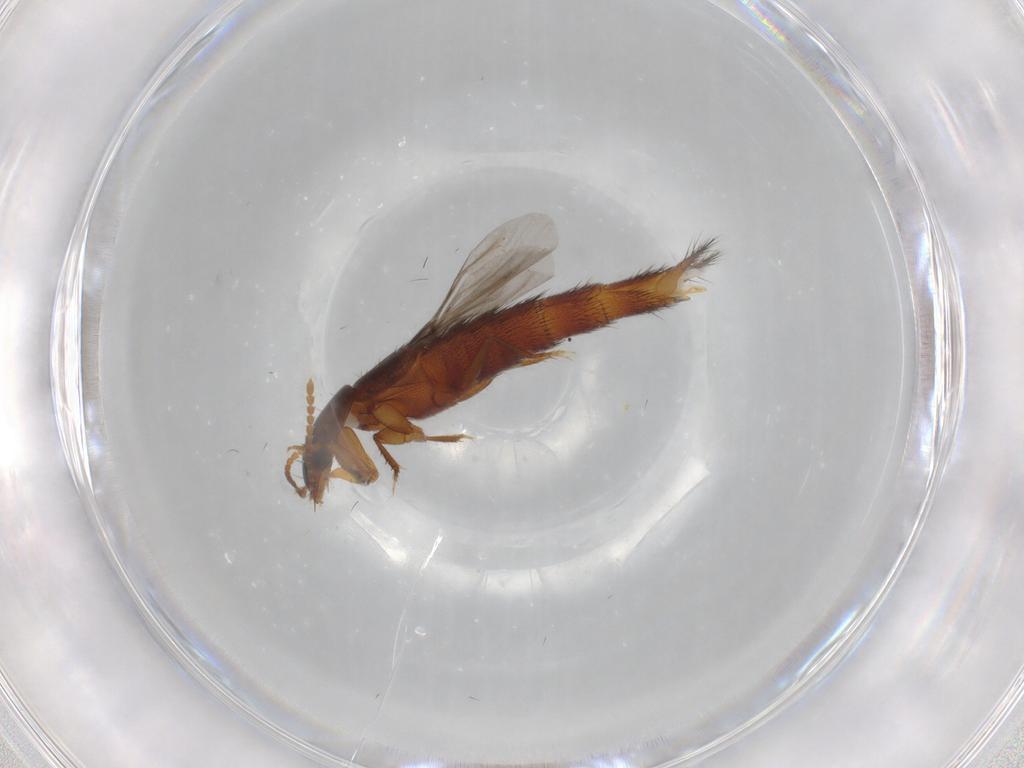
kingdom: Animalia
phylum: Arthropoda
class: Insecta
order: Coleoptera
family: Staphylinidae
